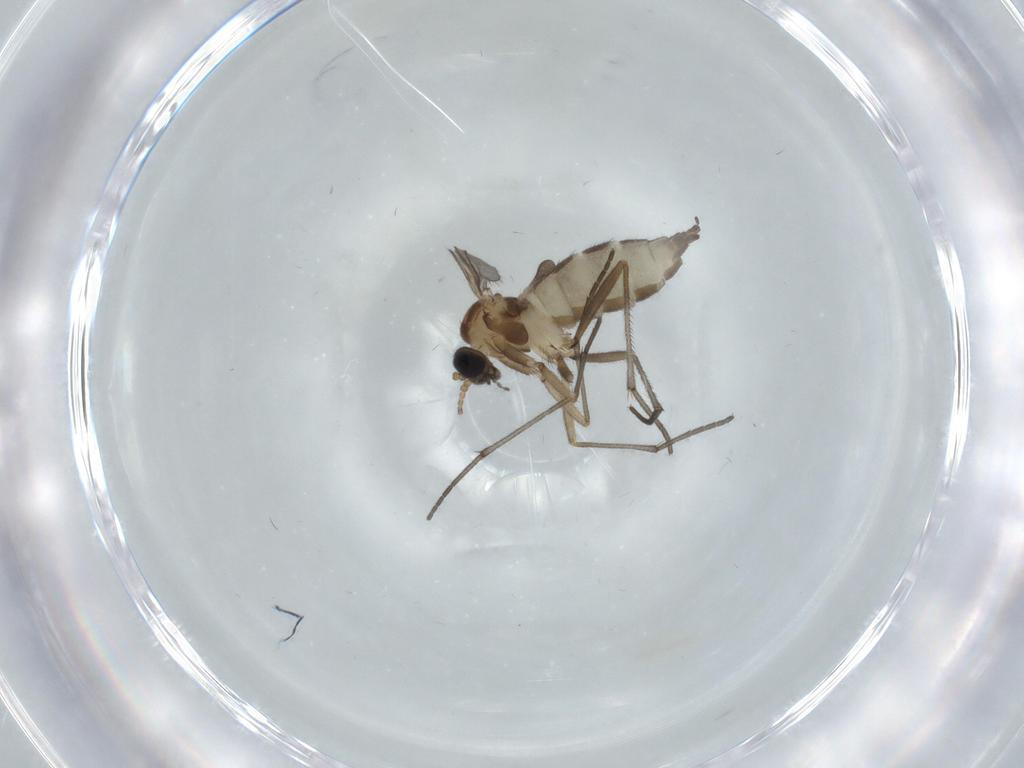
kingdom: Animalia
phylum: Arthropoda
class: Insecta
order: Diptera
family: Sciaridae
